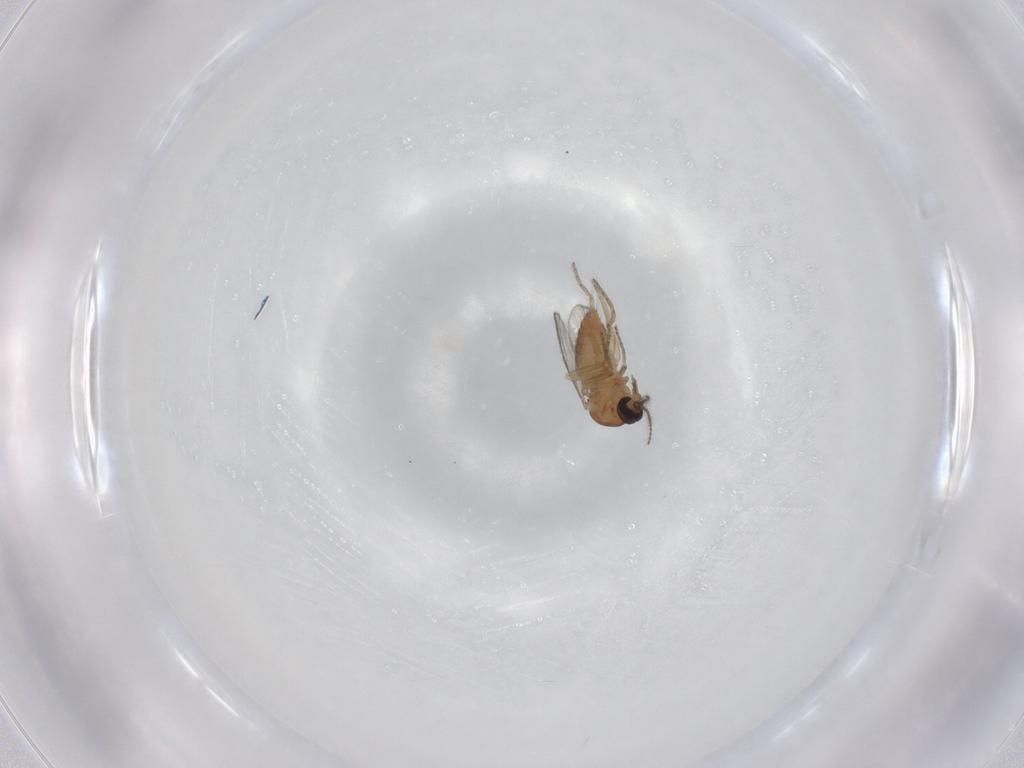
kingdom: Animalia
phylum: Arthropoda
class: Insecta
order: Diptera
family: Ceratopogonidae
